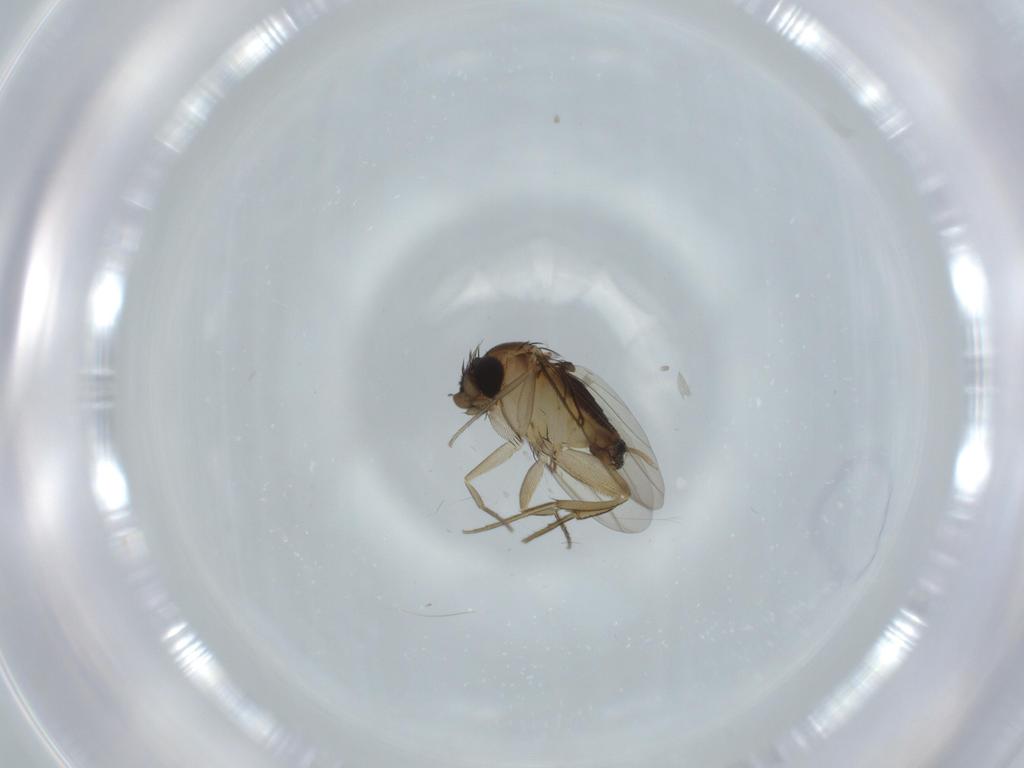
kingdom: Animalia
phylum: Arthropoda
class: Insecta
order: Diptera
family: Phoridae
